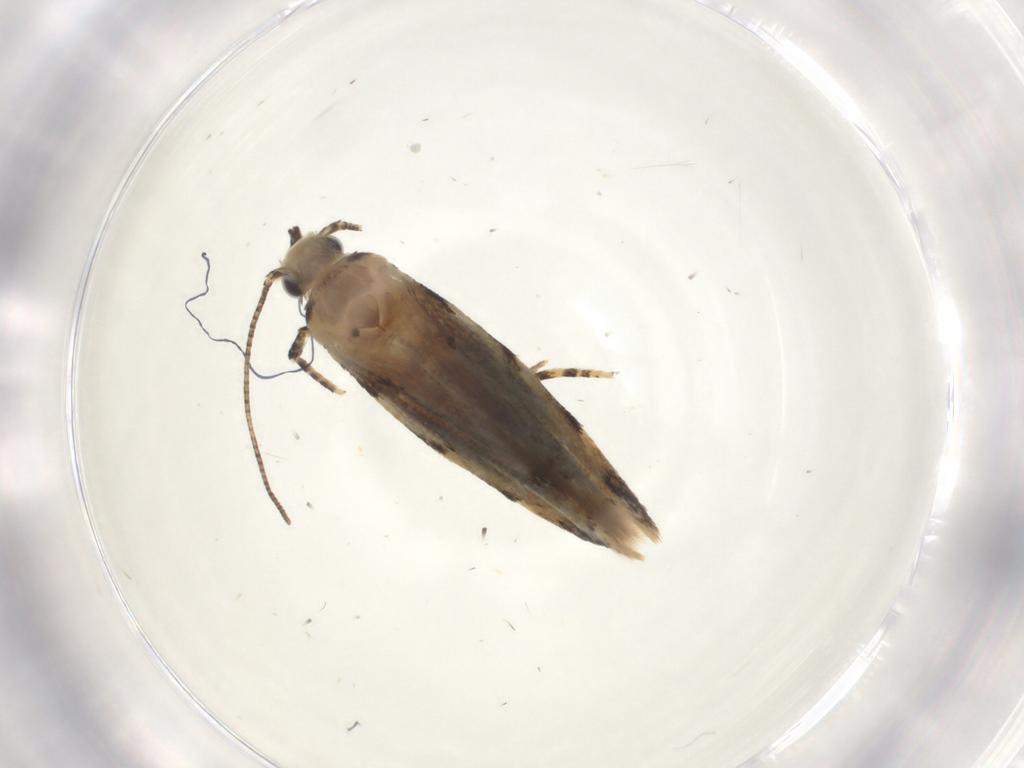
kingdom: Animalia
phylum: Arthropoda
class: Insecta
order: Lepidoptera
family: Gelechiidae
